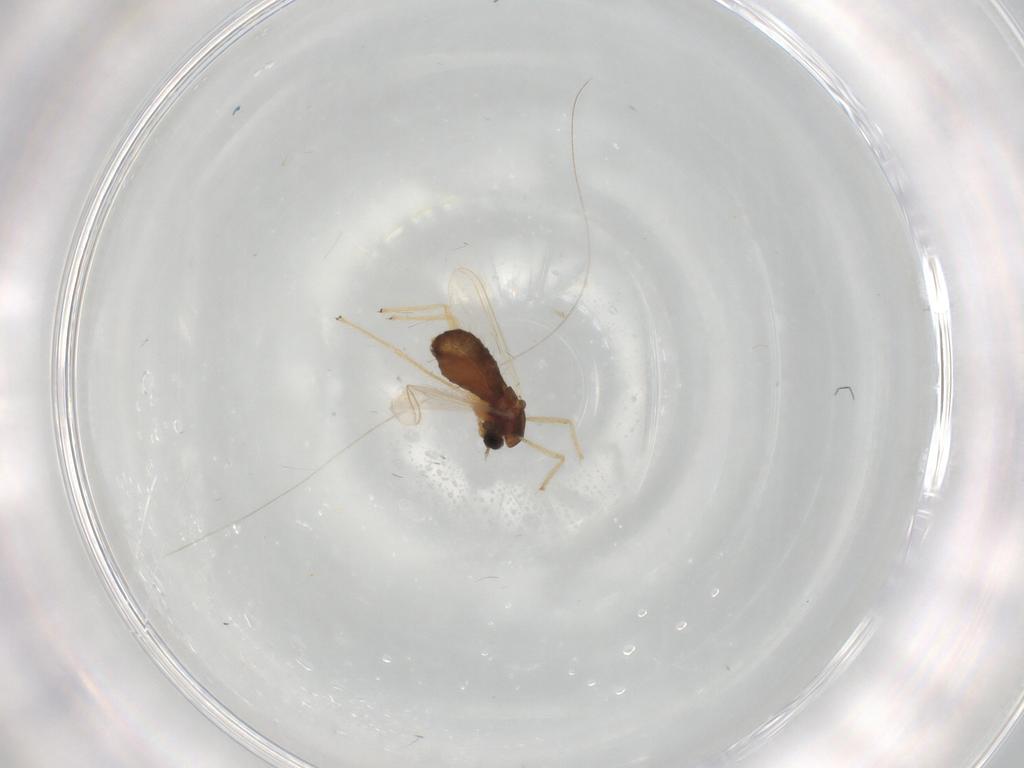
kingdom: Animalia
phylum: Arthropoda
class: Insecta
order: Diptera
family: Chironomidae
